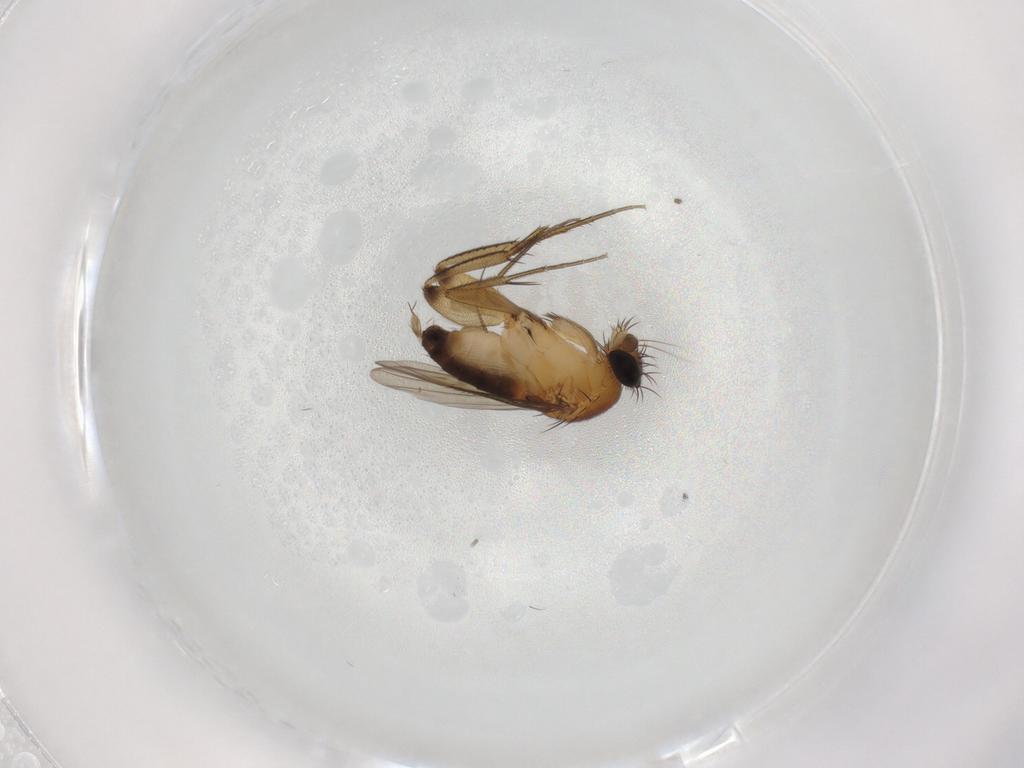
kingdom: Animalia
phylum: Arthropoda
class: Insecta
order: Diptera
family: Phoridae
